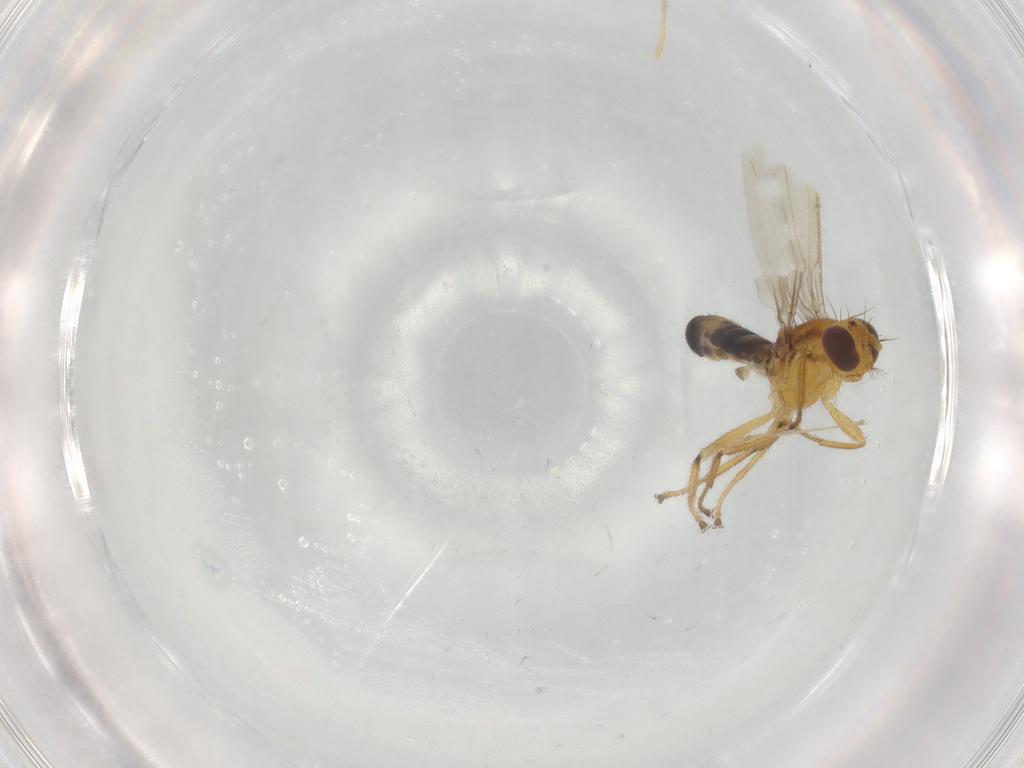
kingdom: Animalia
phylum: Arthropoda
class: Insecta
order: Diptera
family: Periscelididae
